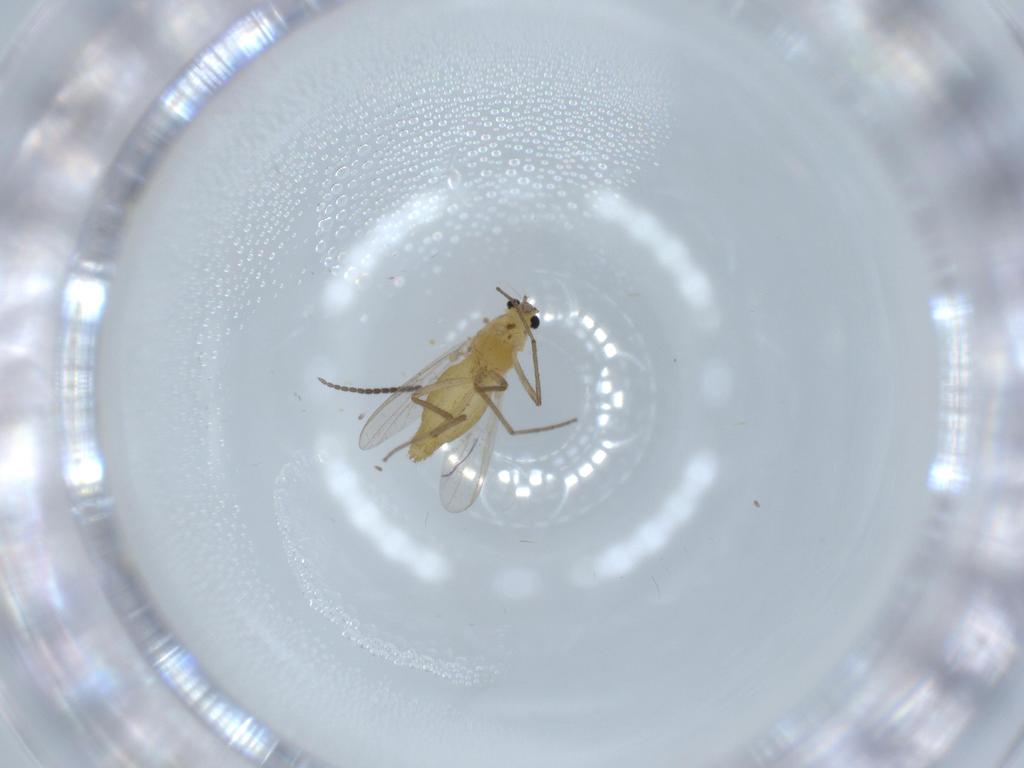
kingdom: Animalia
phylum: Arthropoda
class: Insecta
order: Diptera
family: Chironomidae
